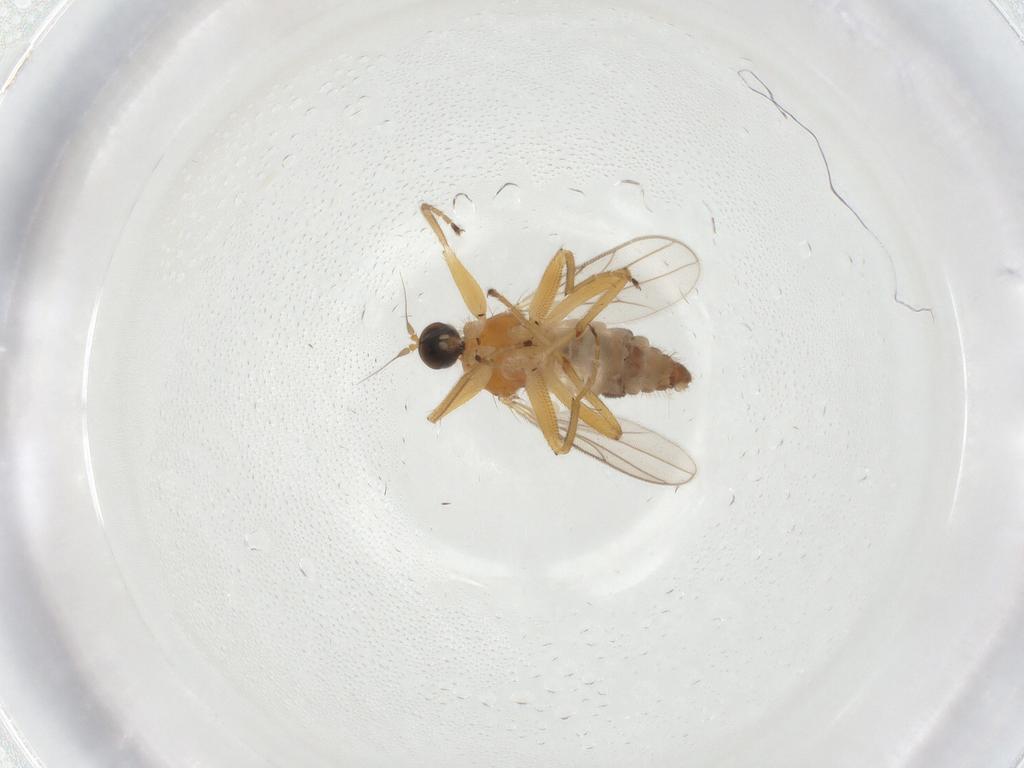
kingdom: Animalia
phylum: Arthropoda
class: Insecta
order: Diptera
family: Hybotidae
